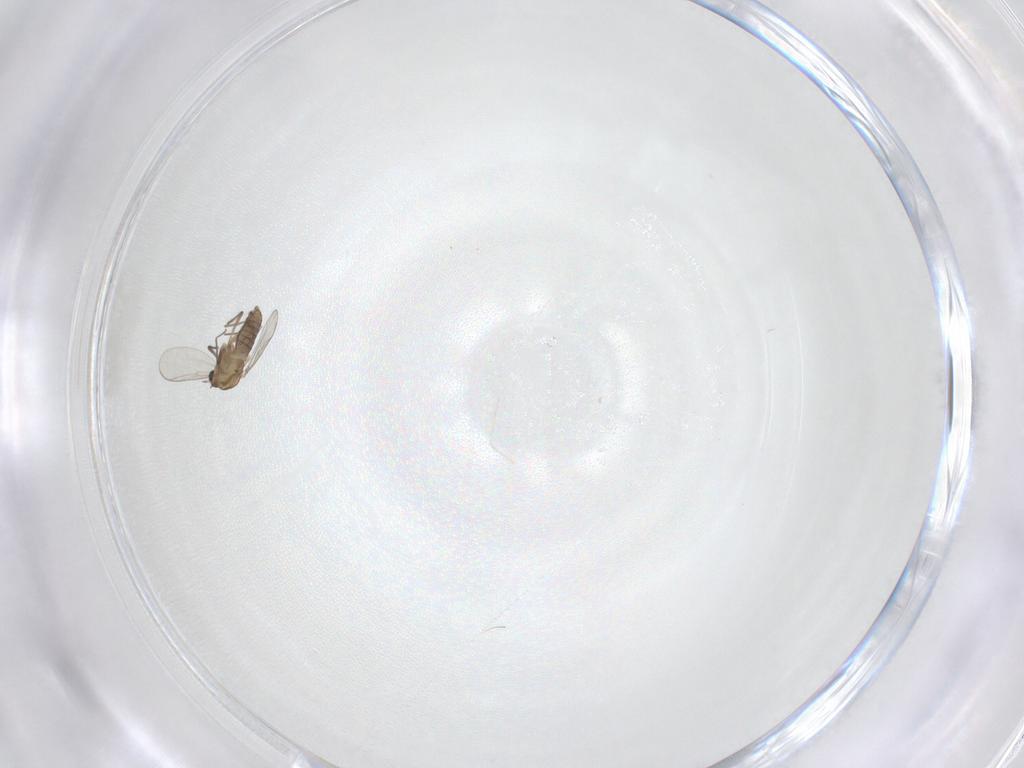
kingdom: Animalia
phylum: Arthropoda
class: Insecta
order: Diptera
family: Chironomidae
